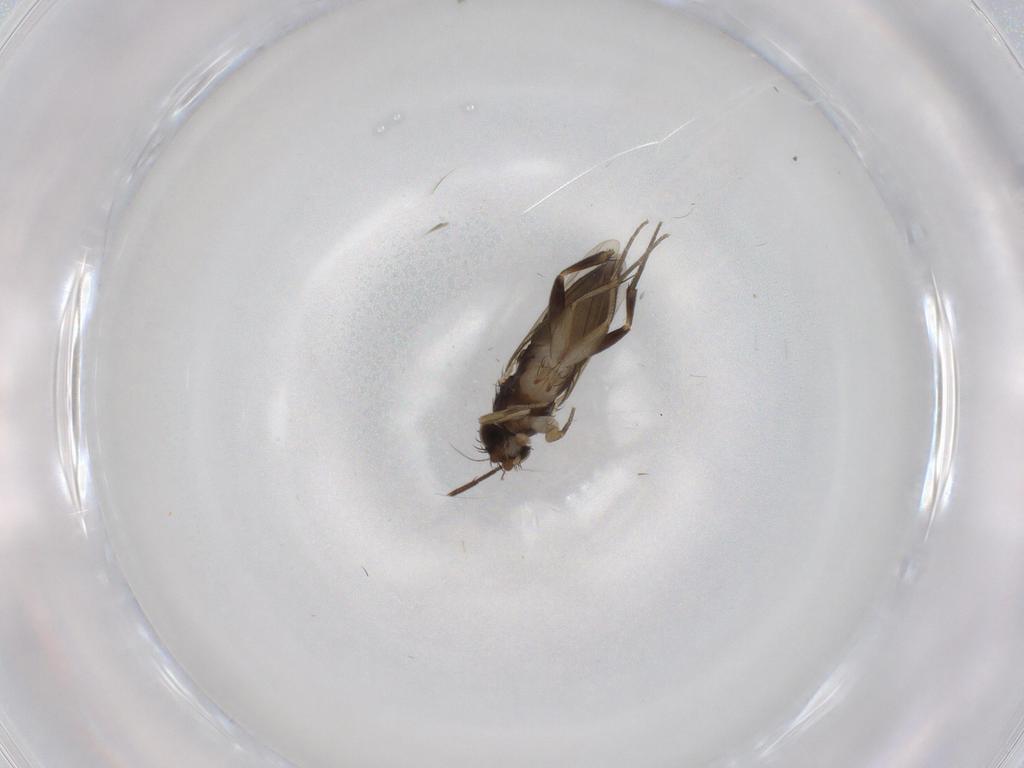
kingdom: Animalia
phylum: Arthropoda
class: Insecta
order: Diptera
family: Phoridae
